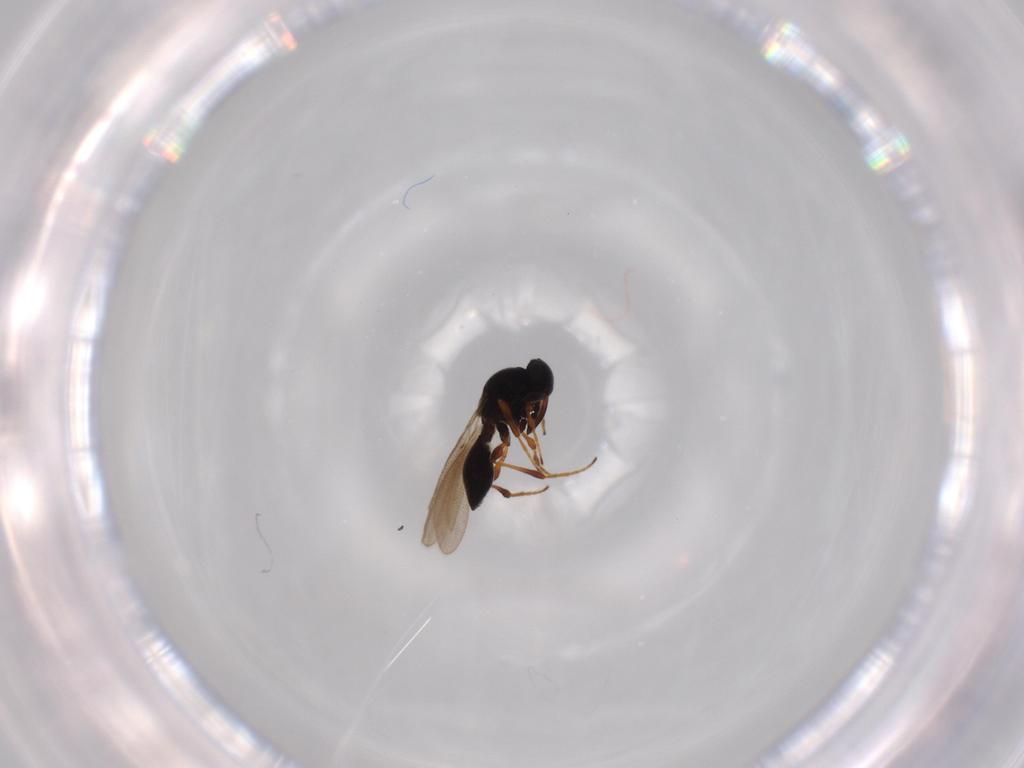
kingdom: Animalia
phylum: Arthropoda
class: Insecta
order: Hymenoptera
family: Platygastridae
